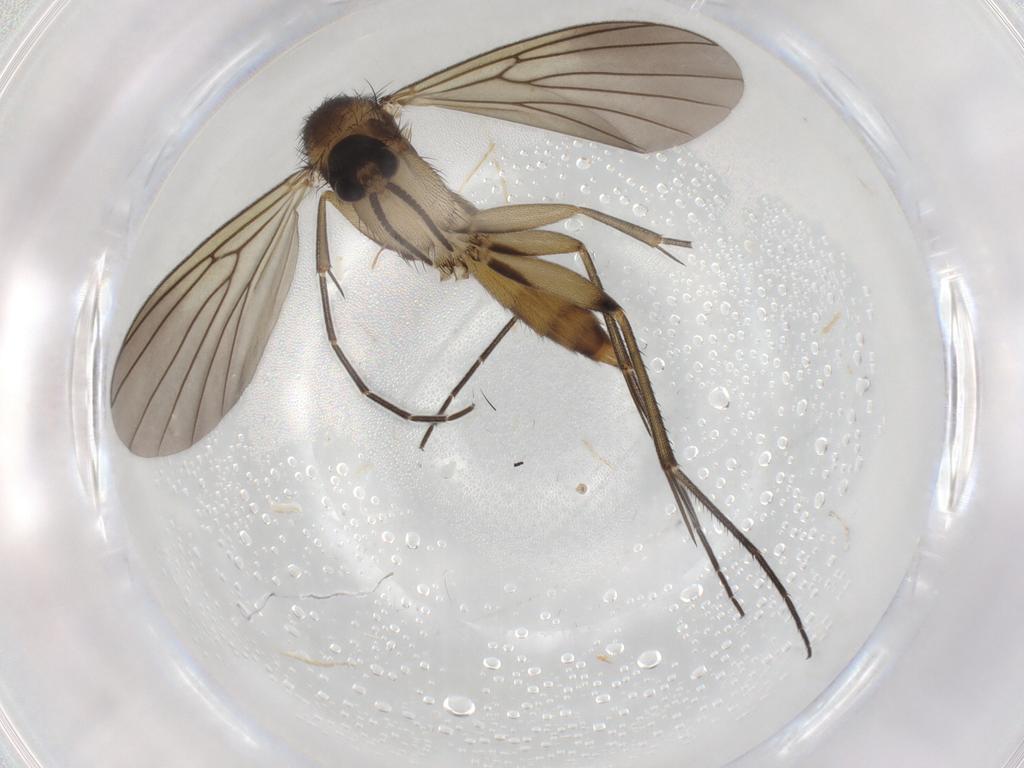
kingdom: Animalia
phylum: Arthropoda
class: Insecta
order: Diptera
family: Mycetophilidae
